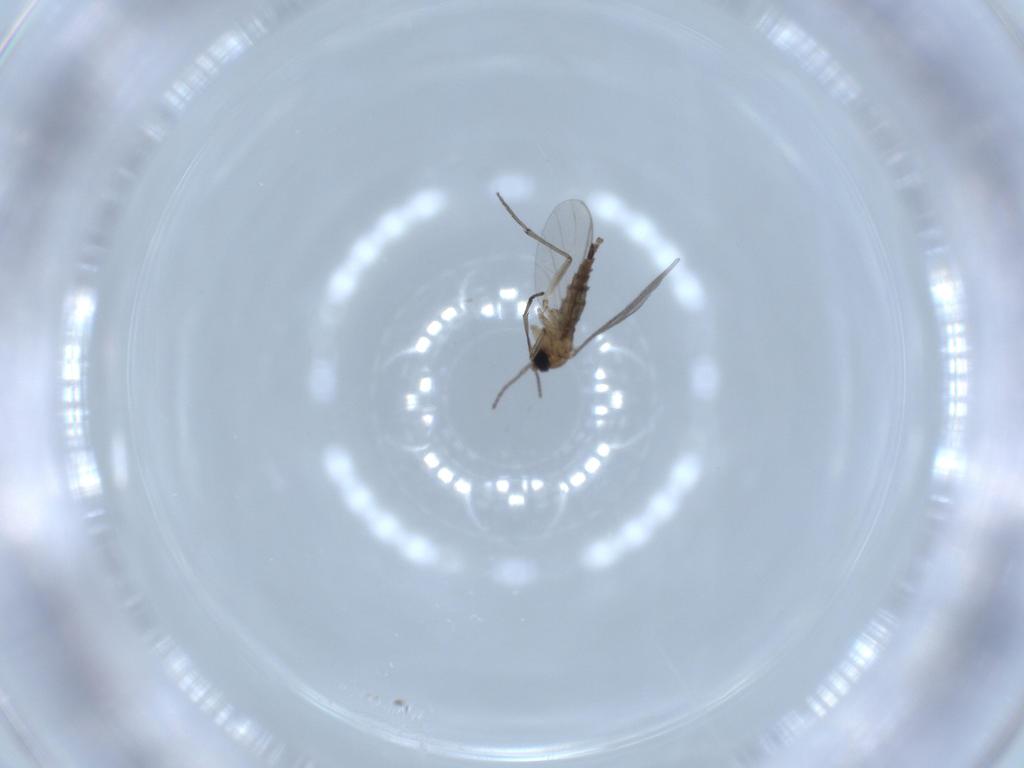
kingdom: Animalia
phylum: Arthropoda
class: Insecta
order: Diptera
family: Sciaridae
